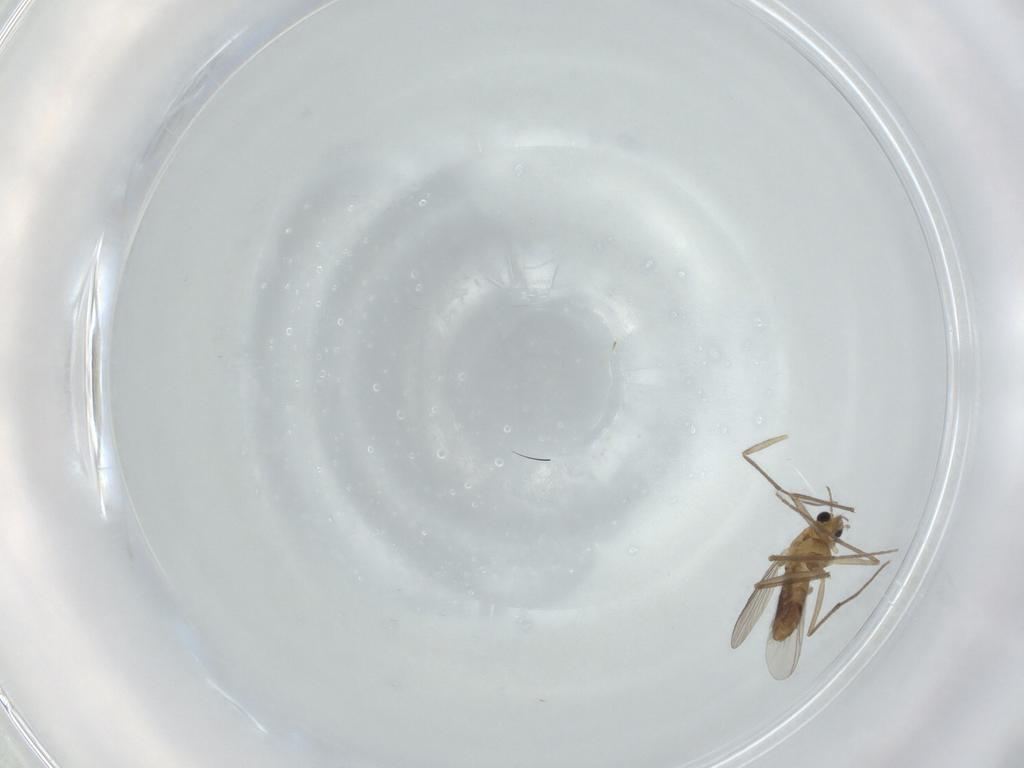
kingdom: Animalia
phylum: Arthropoda
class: Insecta
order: Diptera
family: Chironomidae
